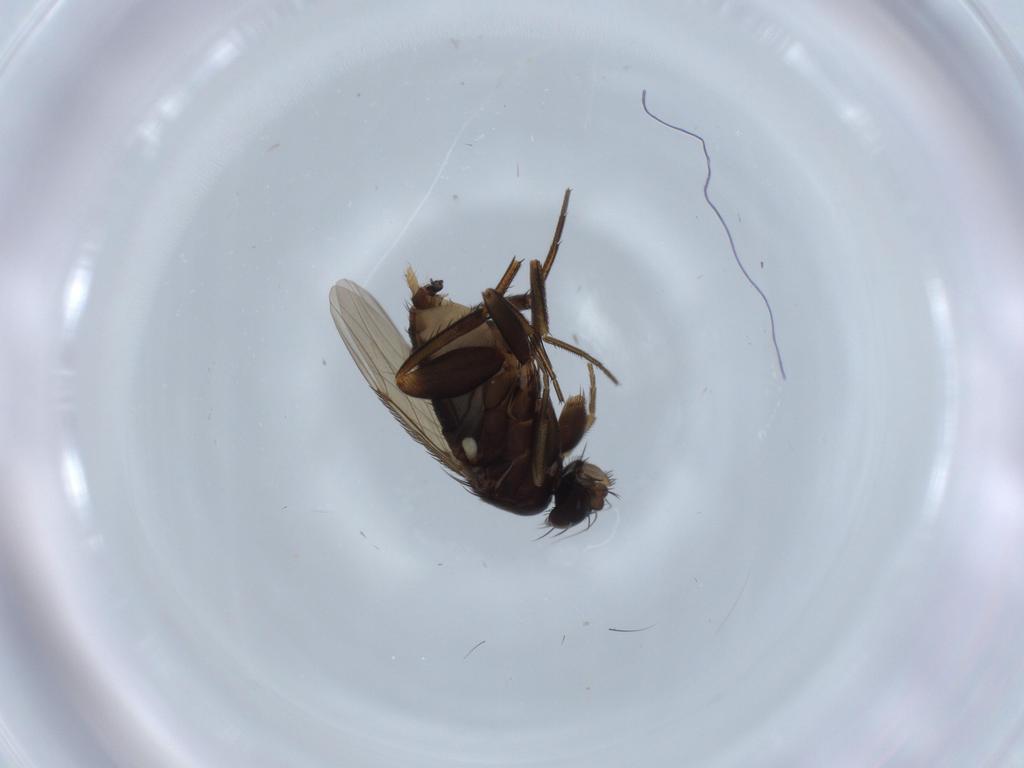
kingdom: Animalia
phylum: Arthropoda
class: Insecta
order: Diptera
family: Phoridae
